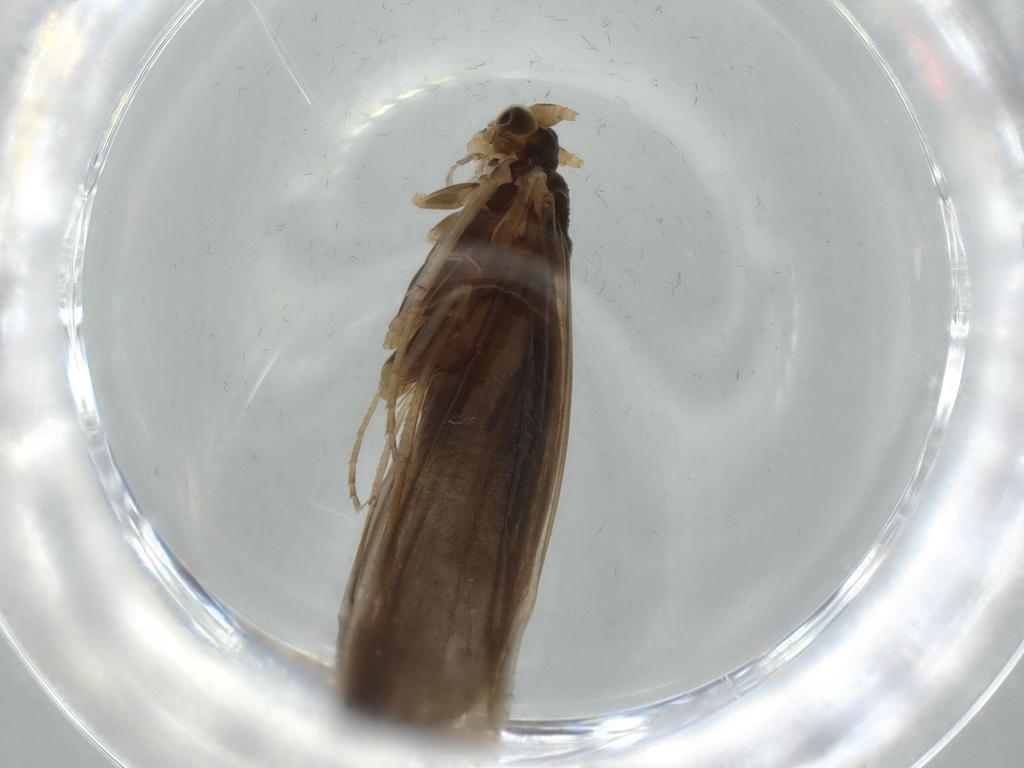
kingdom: Animalia
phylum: Arthropoda
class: Insecta
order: Trichoptera
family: Leptoceridae
